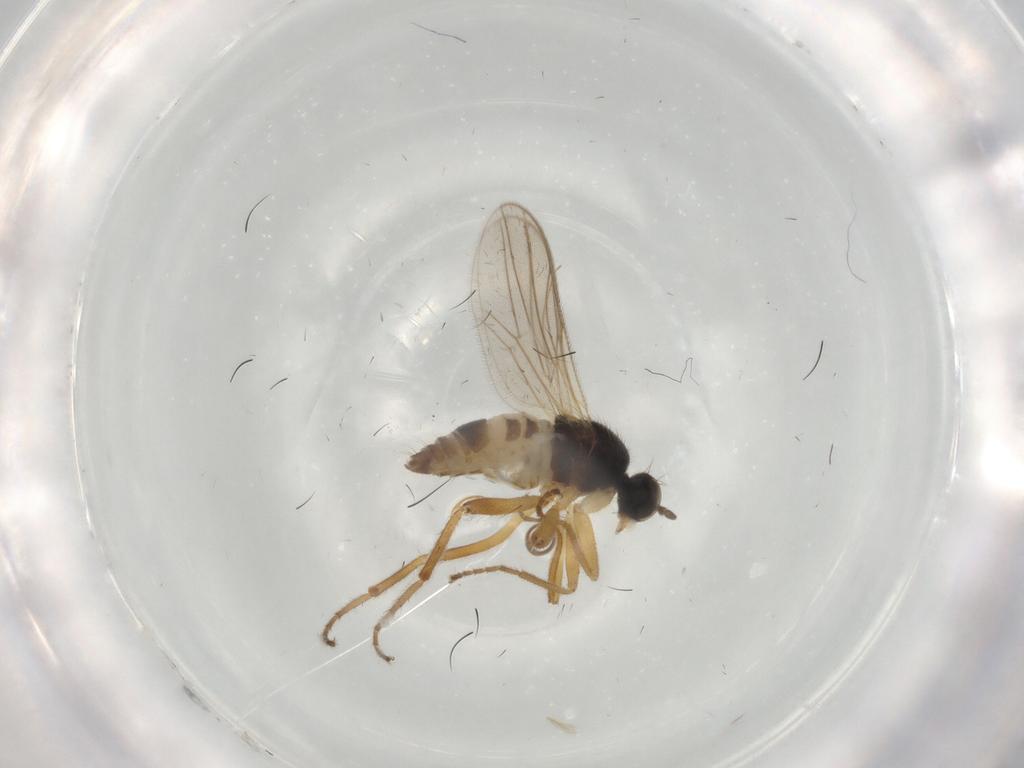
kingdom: Animalia
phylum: Arthropoda
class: Insecta
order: Diptera
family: Hybotidae
